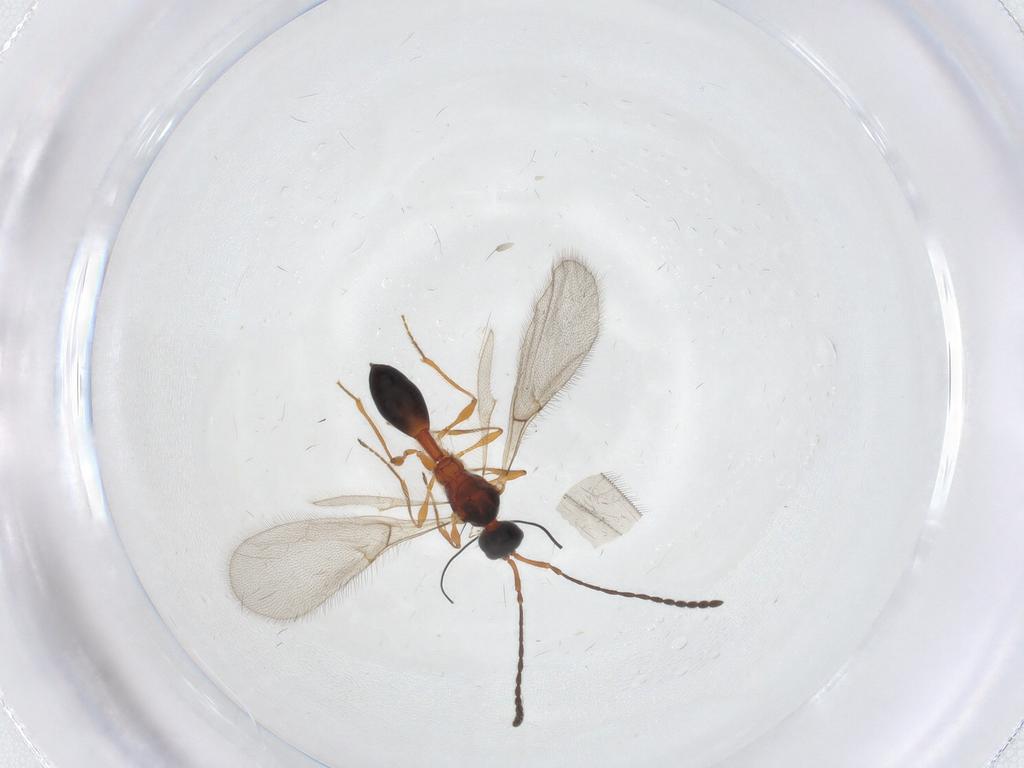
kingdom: Animalia
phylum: Arthropoda
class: Insecta
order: Hymenoptera
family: Diapriidae
